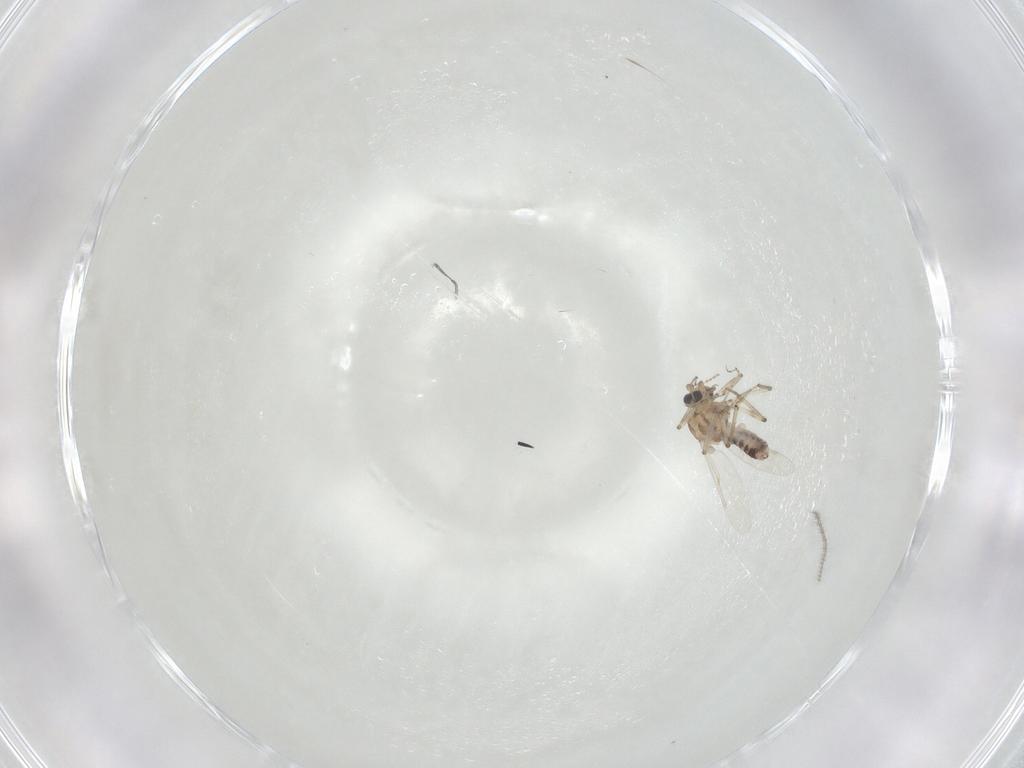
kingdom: Animalia
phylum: Arthropoda
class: Insecta
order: Diptera
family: Ceratopogonidae
